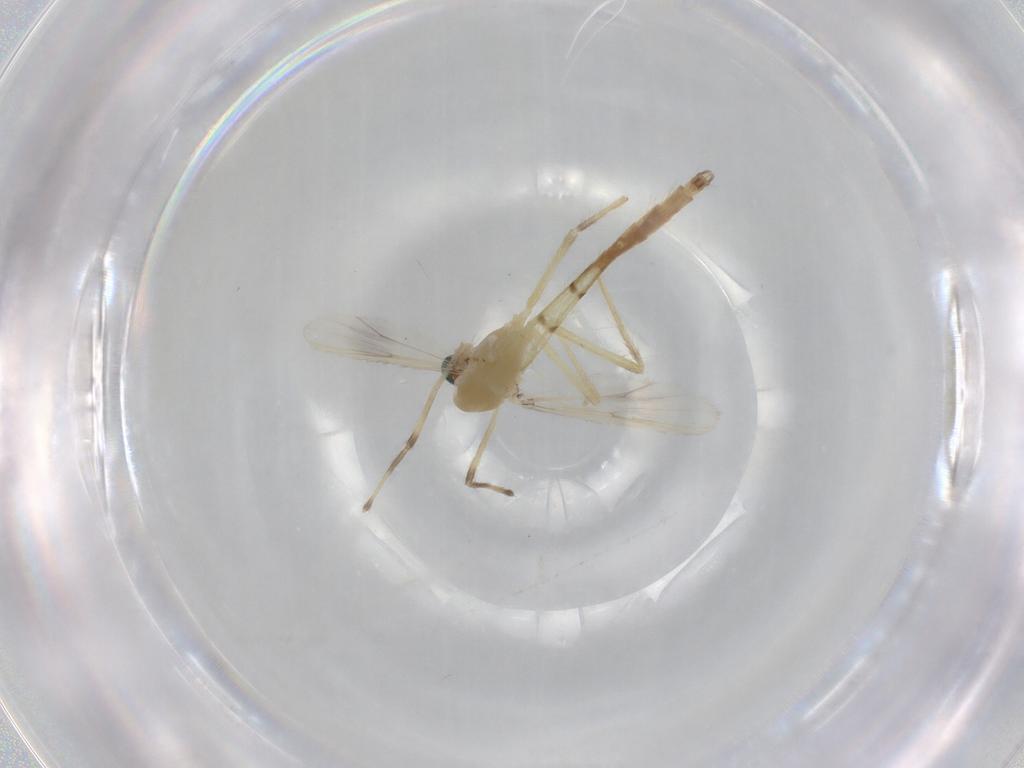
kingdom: Animalia
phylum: Arthropoda
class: Insecta
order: Diptera
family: Chironomidae
